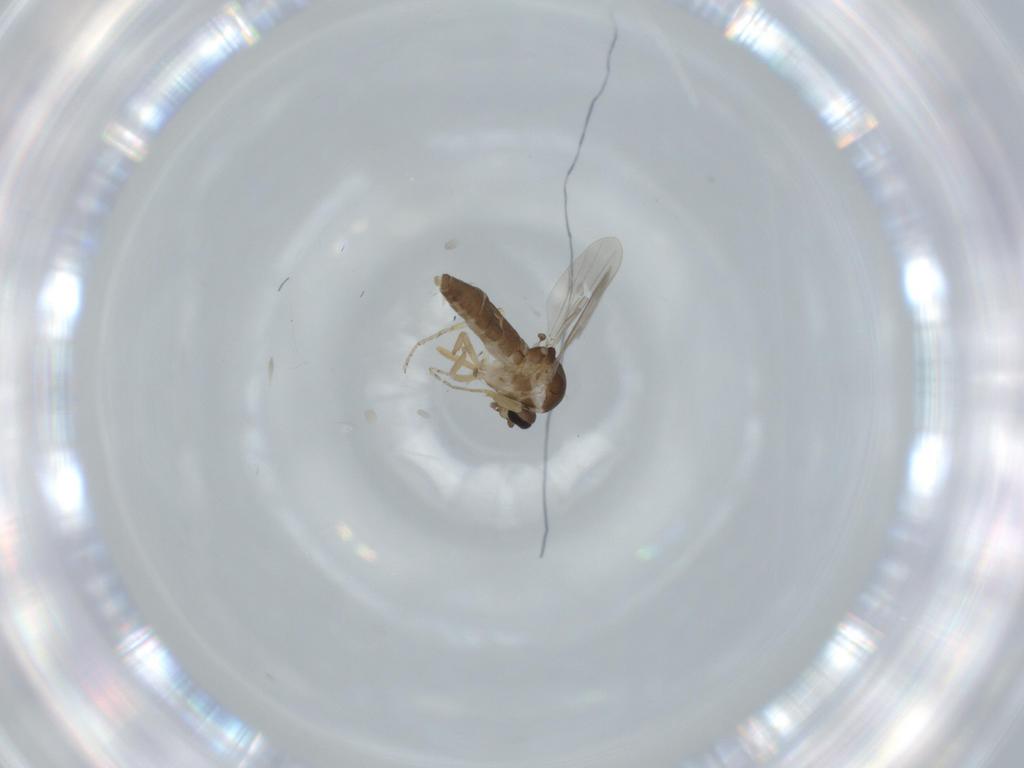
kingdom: Animalia
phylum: Arthropoda
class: Insecta
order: Diptera
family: Ceratopogonidae
